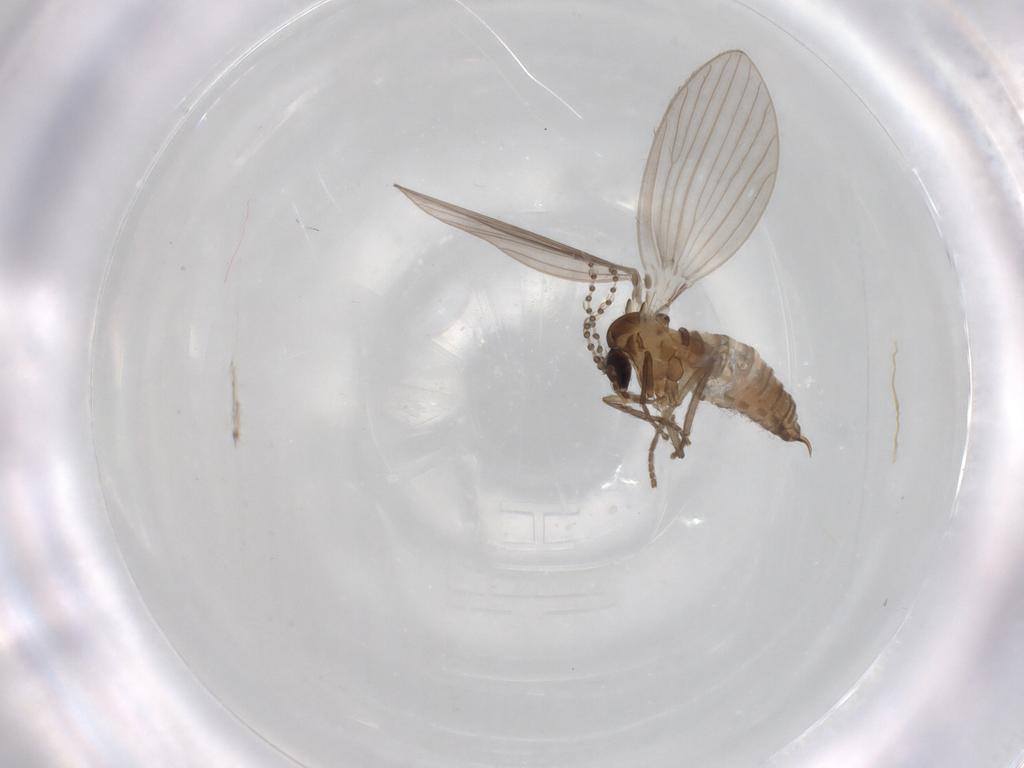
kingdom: Animalia
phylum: Arthropoda
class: Insecta
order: Diptera
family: Psychodidae
